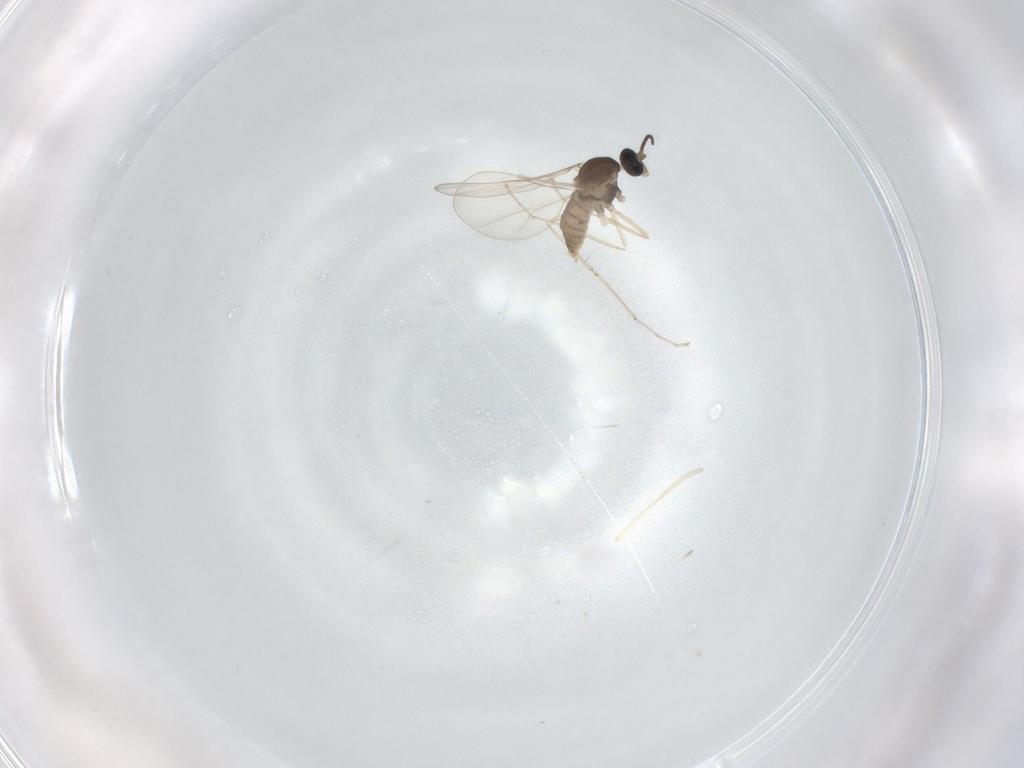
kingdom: Animalia
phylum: Arthropoda
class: Insecta
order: Diptera
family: Cecidomyiidae
